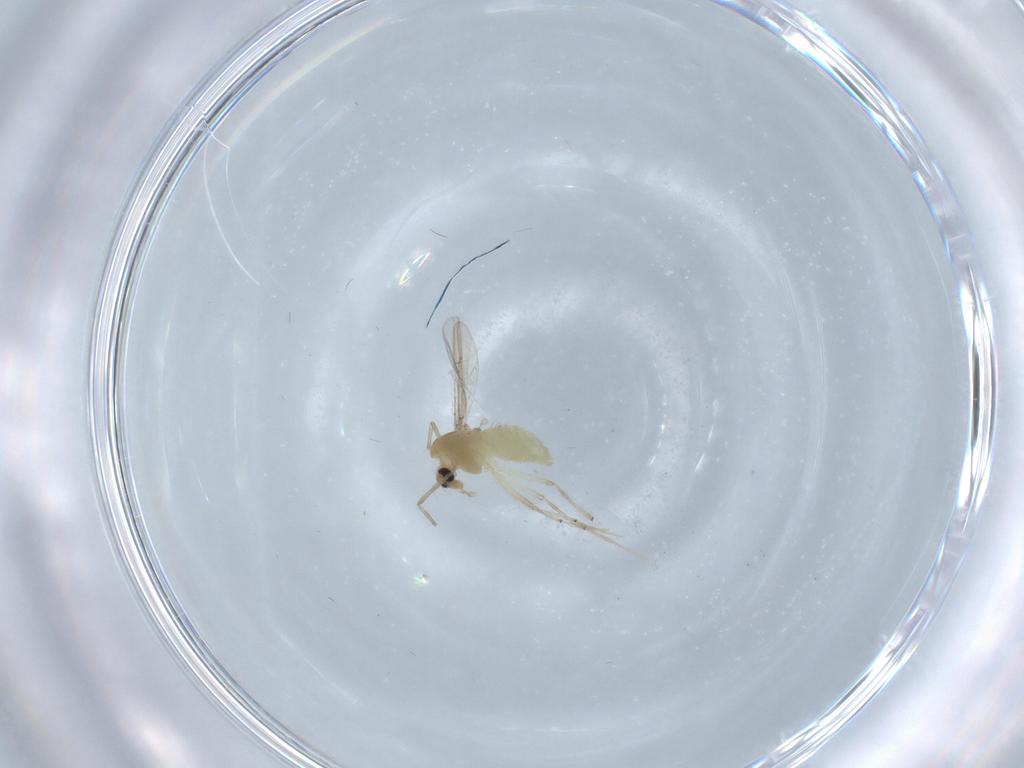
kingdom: Animalia
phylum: Arthropoda
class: Insecta
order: Diptera
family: Chironomidae
